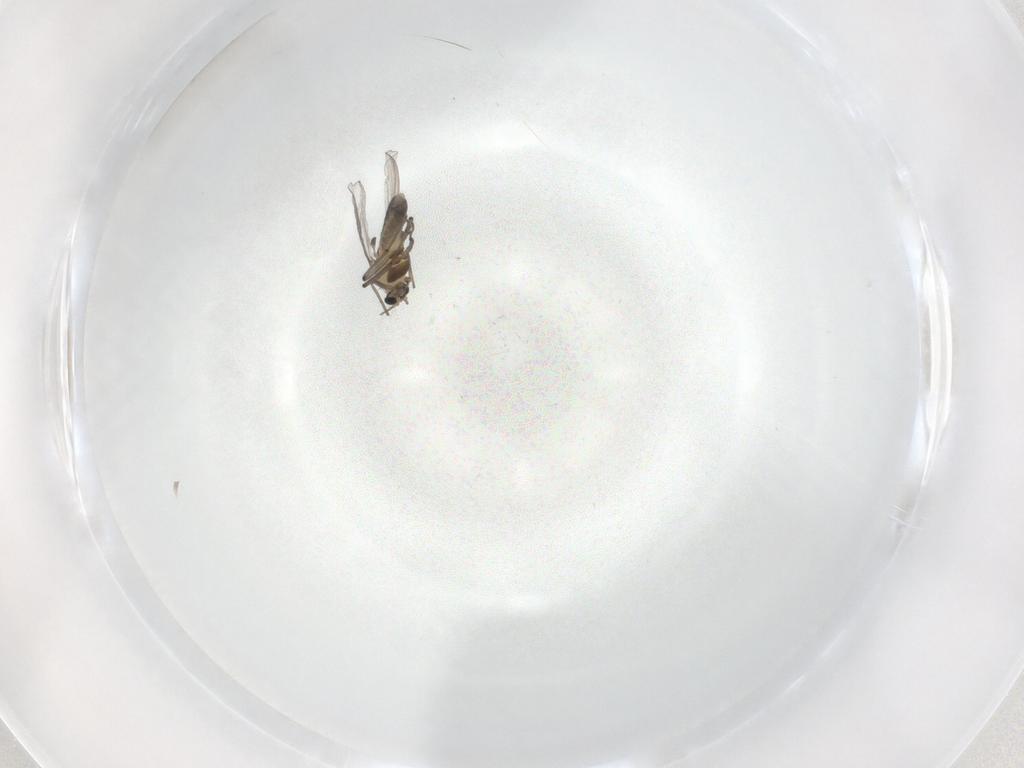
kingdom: Animalia
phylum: Arthropoda
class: Insecta
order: Diptera
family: Chironomidae
